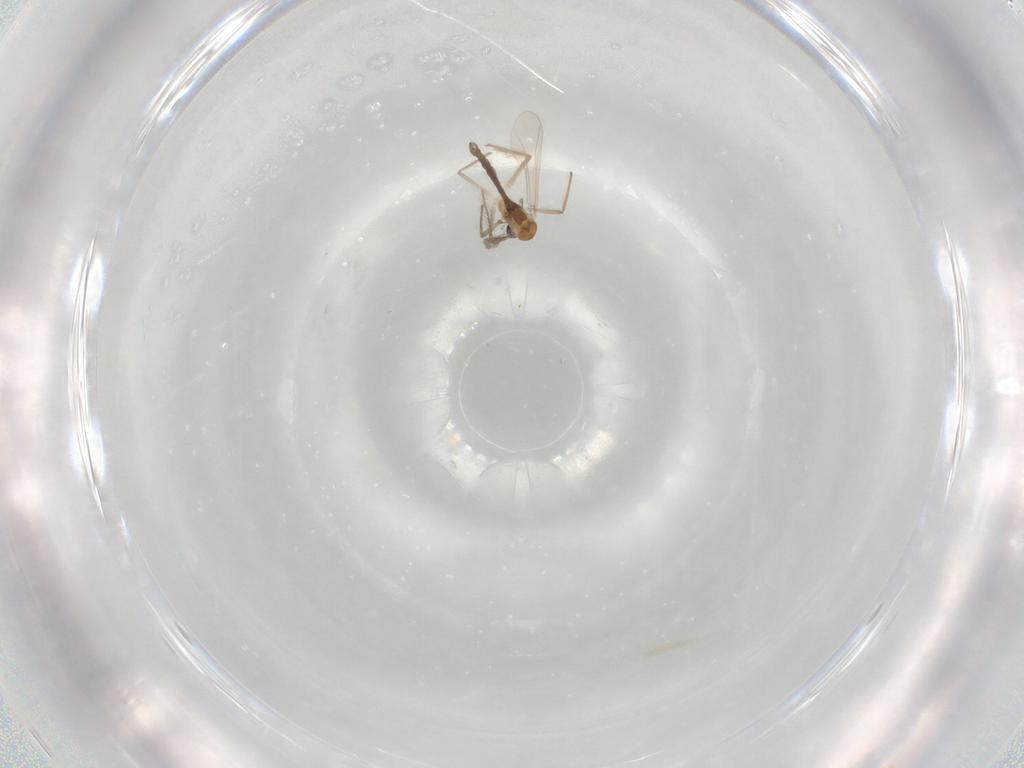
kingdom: Animalia
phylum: Arthropoda
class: Insecta
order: Diptera
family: Chironomidae
